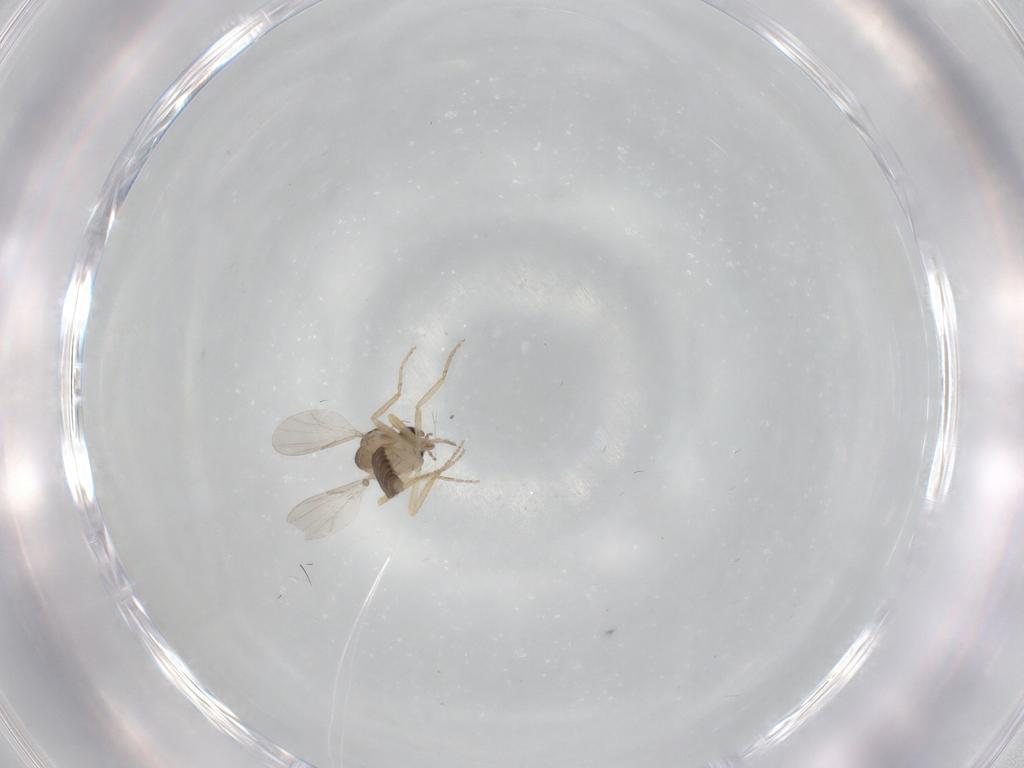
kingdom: Animalia
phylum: Arthropoda
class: Insecta
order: Diptera
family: Ceratopogonidae
